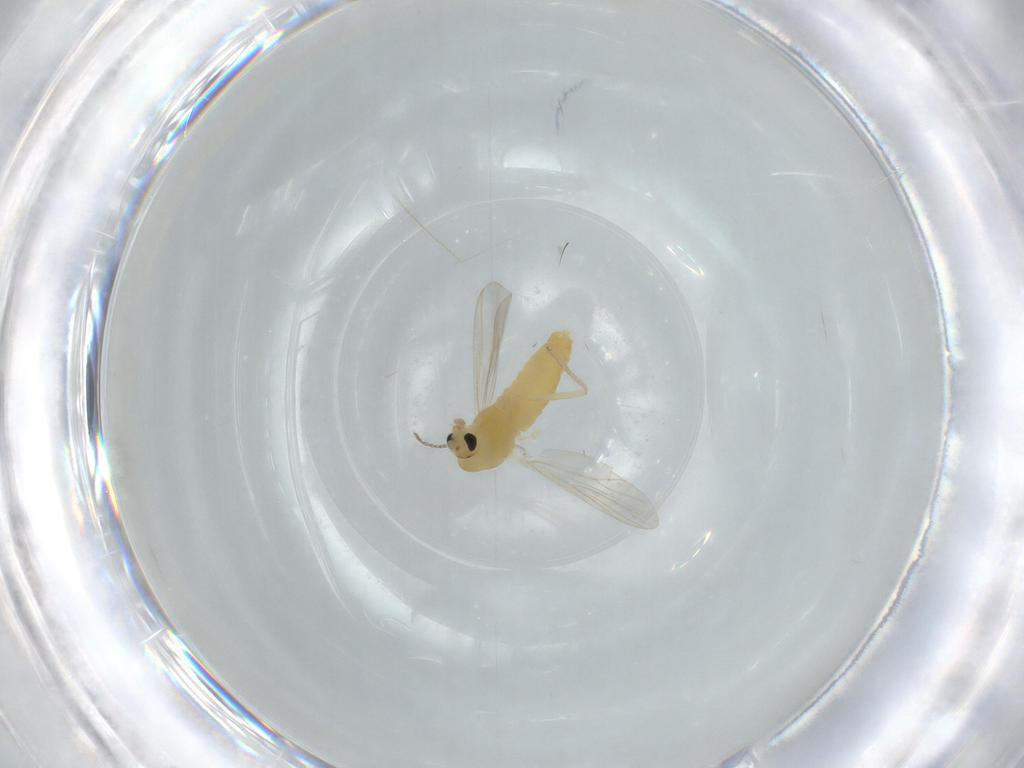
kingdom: Animalia
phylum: Arthropoda
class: Insecta
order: Diptera
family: Chironomidae
